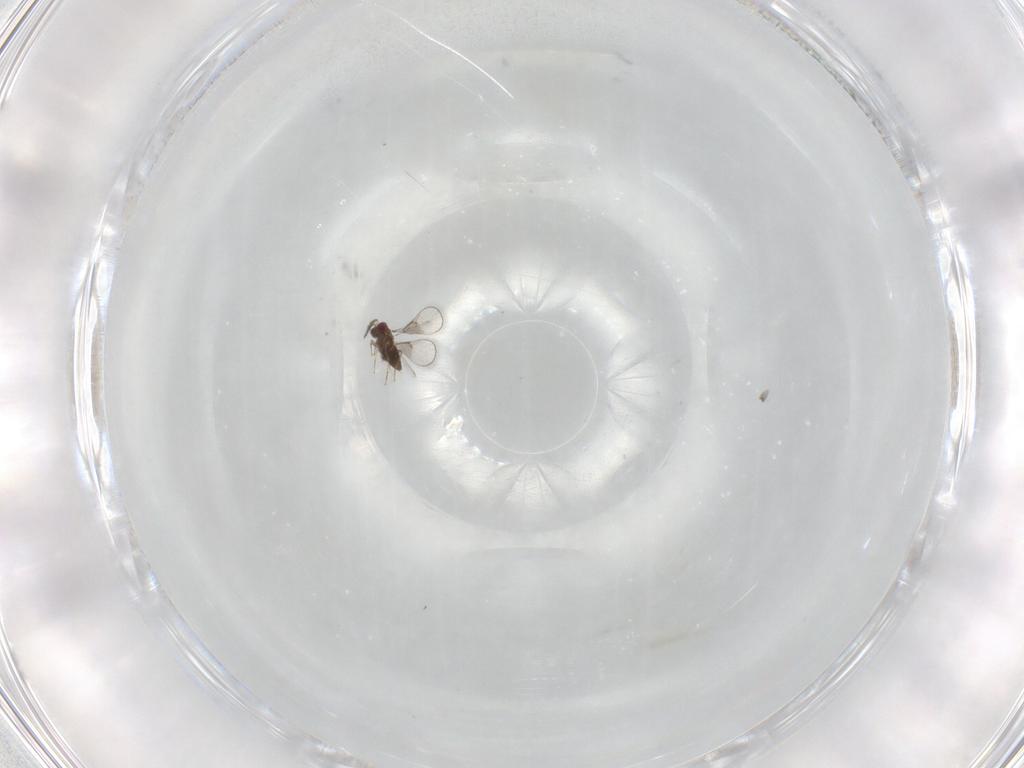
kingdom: Animalia
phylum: Arthropoda
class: Insecta
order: Hymenoptera
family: Trichogrammatidae
